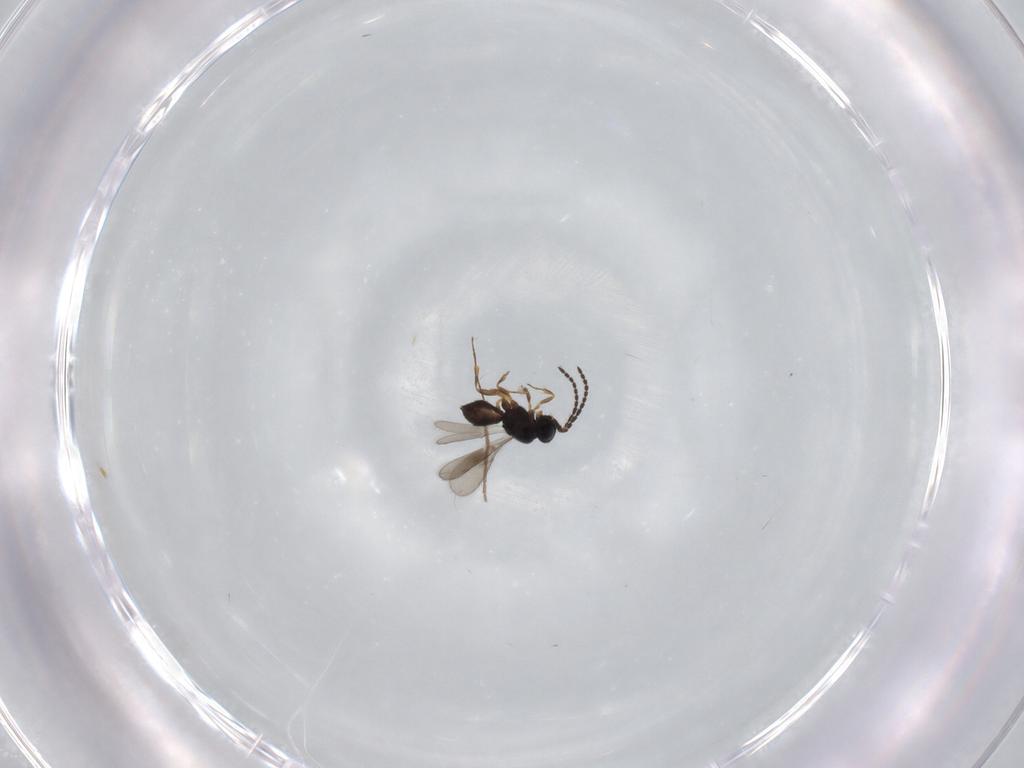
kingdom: Animalia
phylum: Arthropoda
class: Insecta
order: Hymenoptera
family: Scelionidae
